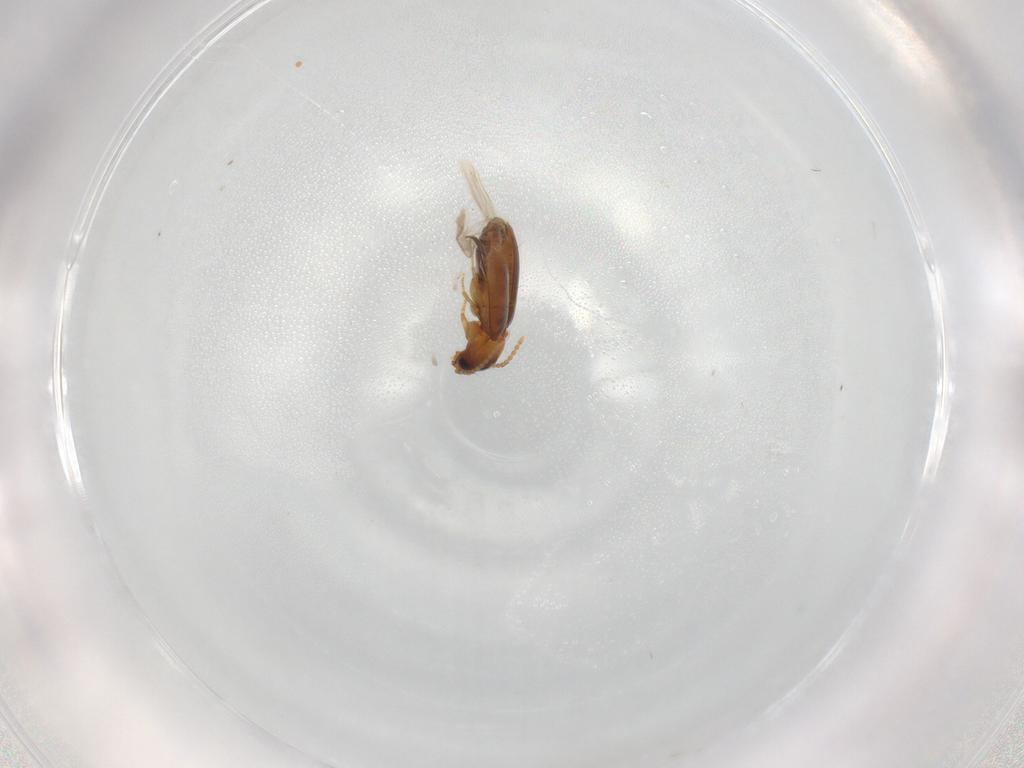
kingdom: Animalia
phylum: Arthropoda
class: Insecta
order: Coleoptera
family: Carabidae
